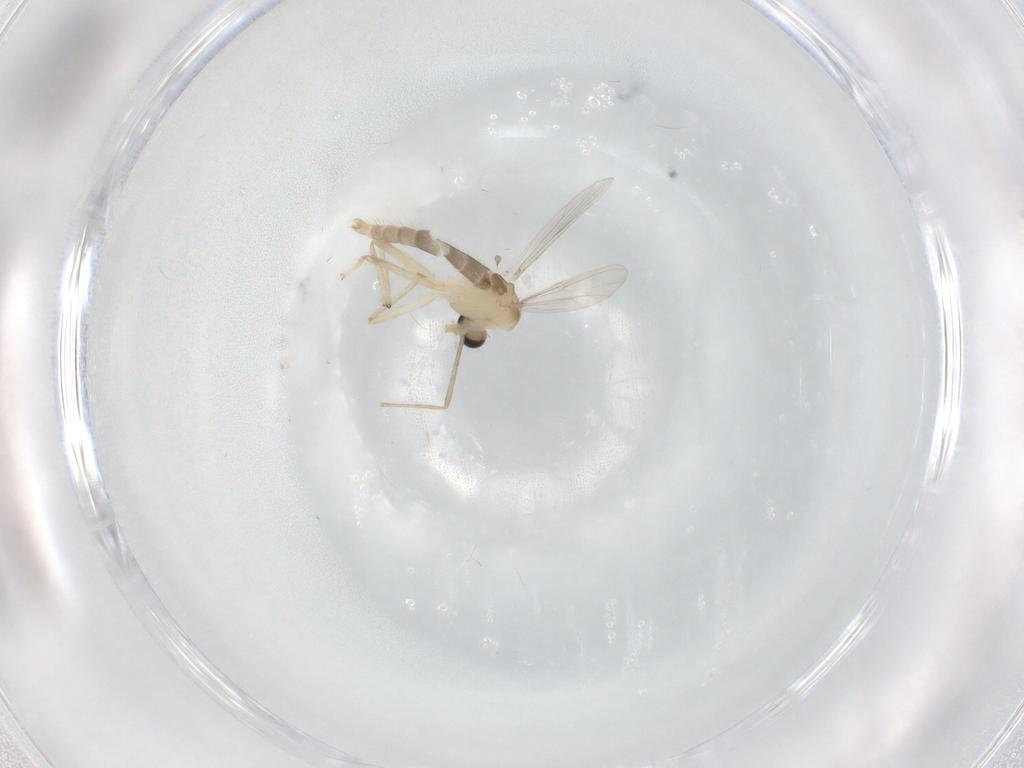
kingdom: Animalia
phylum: Arthropoda
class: Insecta
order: Diptera
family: Chironomidae
